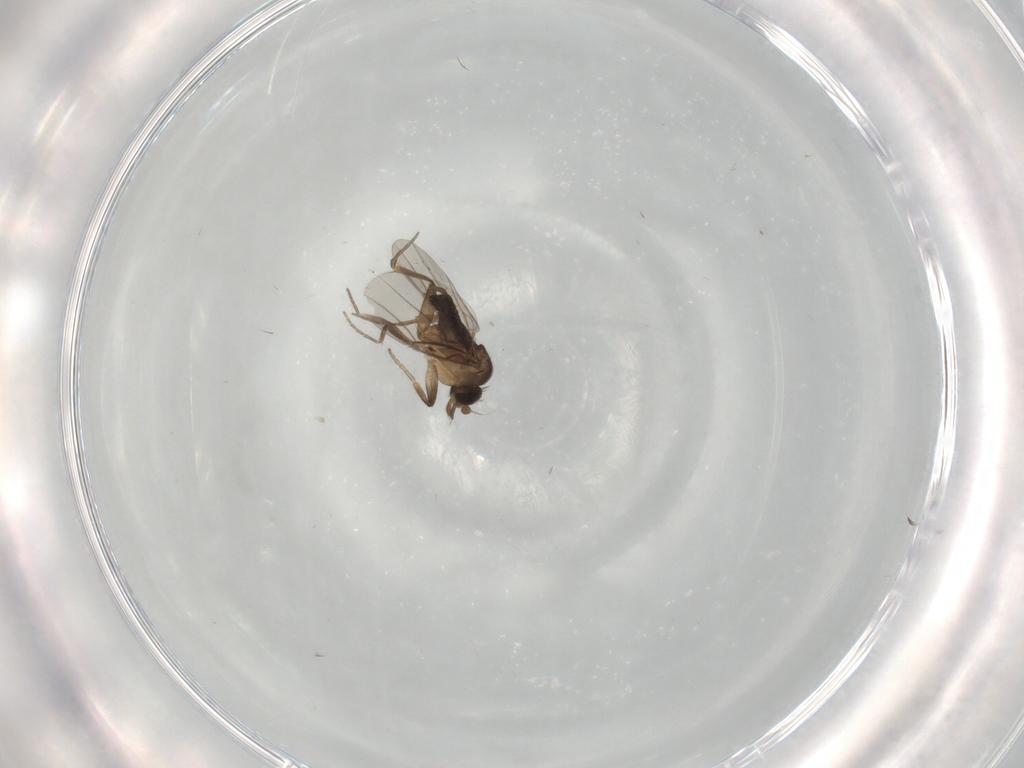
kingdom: Animalia
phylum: Arthropoda
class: Insecta
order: Diptera
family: Phoridae
